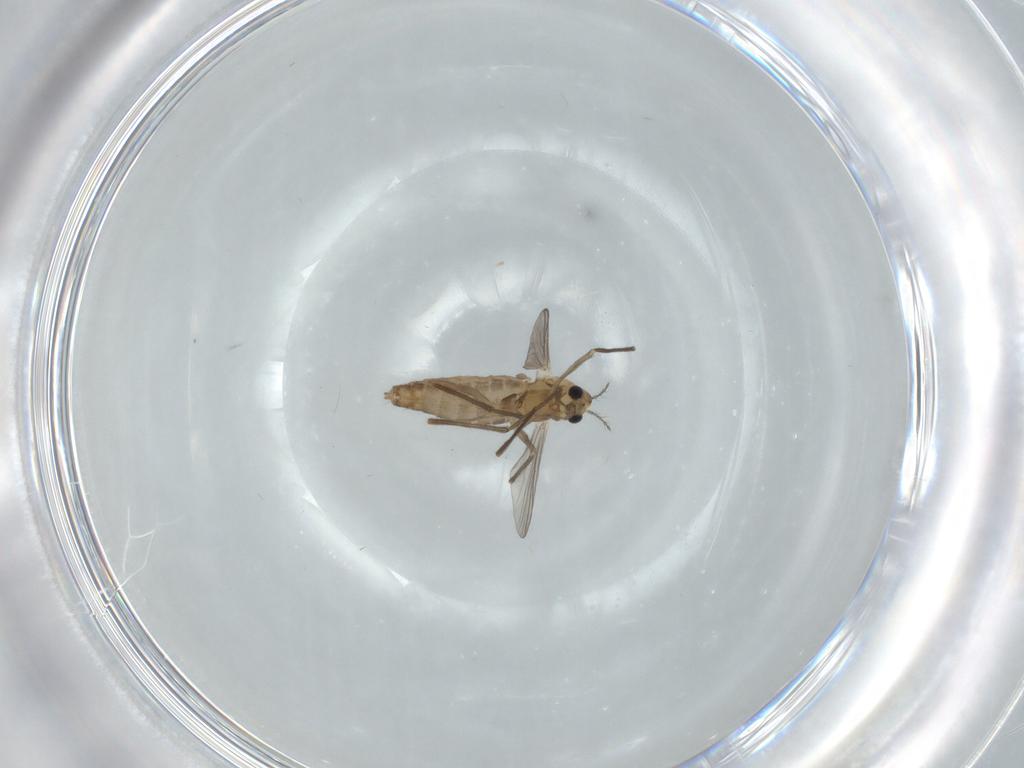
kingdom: Animalia
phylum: Arthropoda
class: Insecta
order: Diptera
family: Chironomidae
